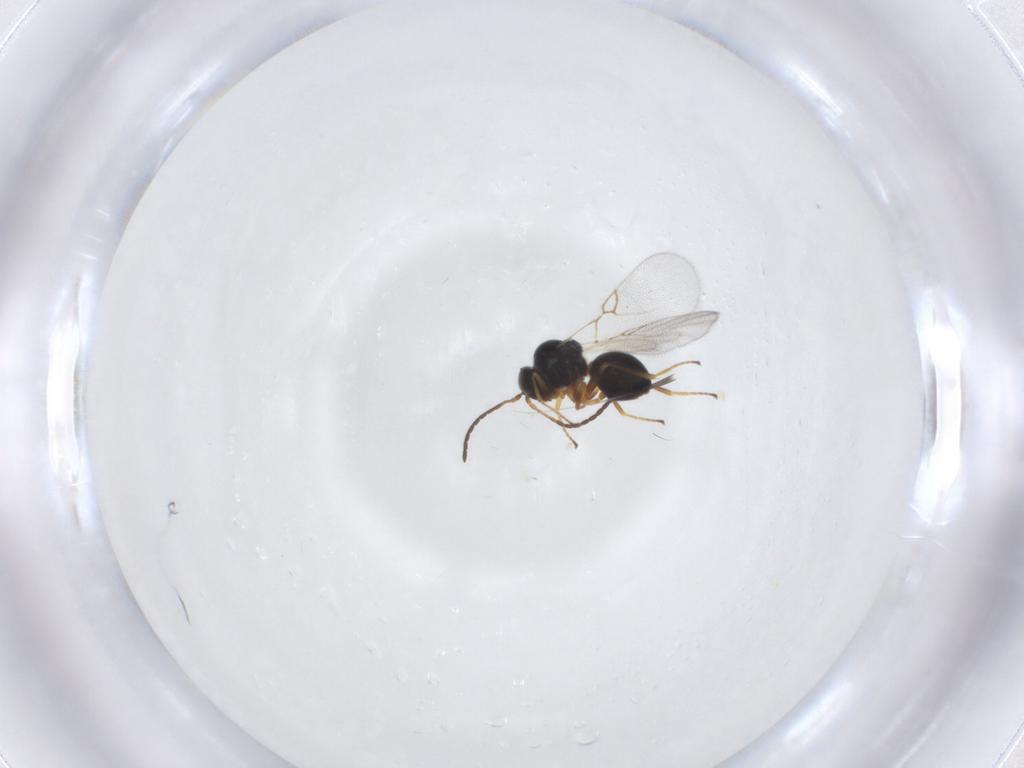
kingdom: Animalia
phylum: Arthropoda
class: Insecta
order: Hymenoptera
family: Figitidae
